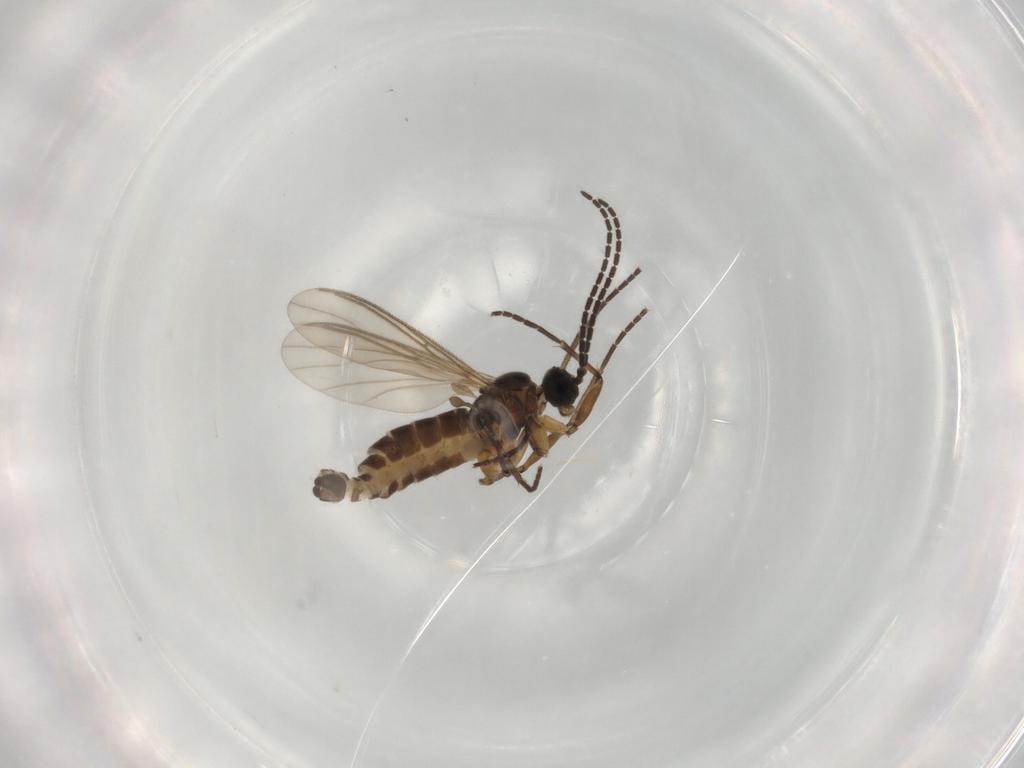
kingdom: Animalia
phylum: Arthropoda
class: Insecta
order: Diptera
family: Sciaridae
